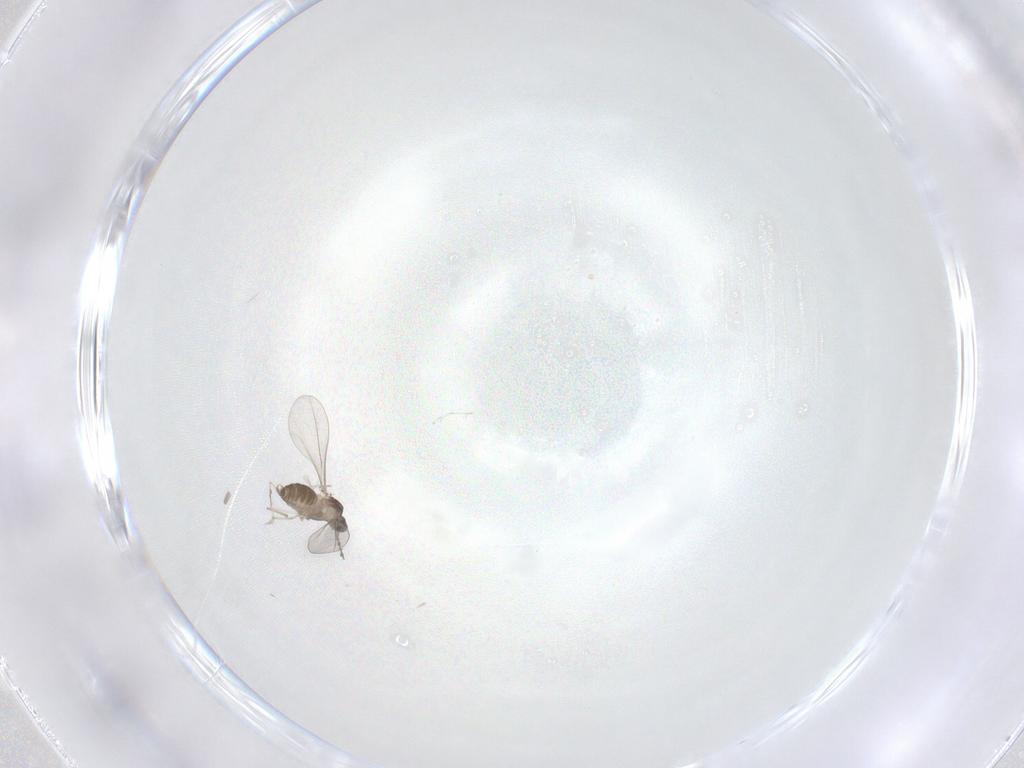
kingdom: Animalia
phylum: Arthropoda
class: Insecta
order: Diptera
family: Cecidomyiidae
